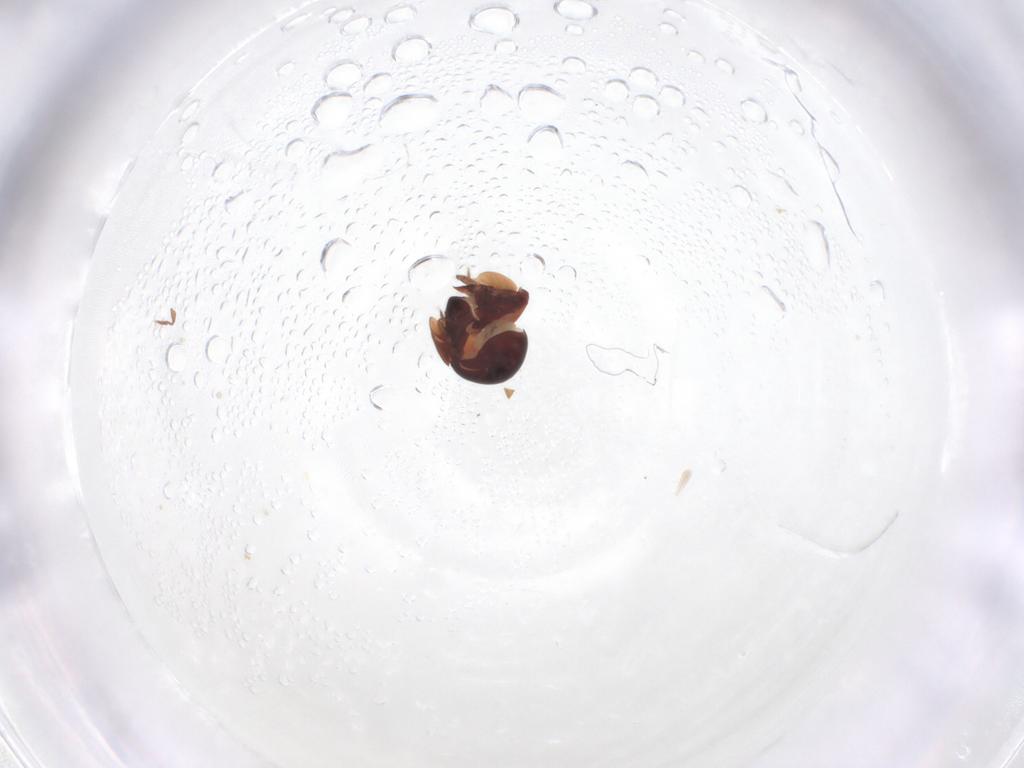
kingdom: Animalia
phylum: Arthropoda
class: Arachnida
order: Sarcoptiformes
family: Galumnidae
